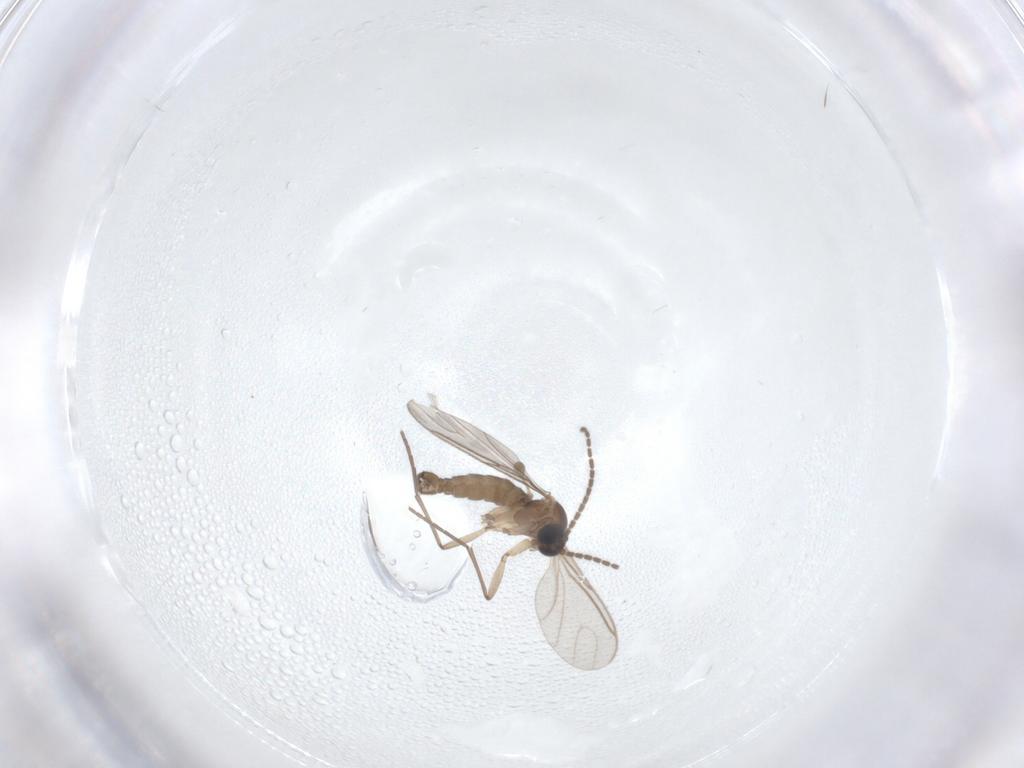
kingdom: Animalia
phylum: Arthropoda
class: Insecta
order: Diptera
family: Sciaridae
